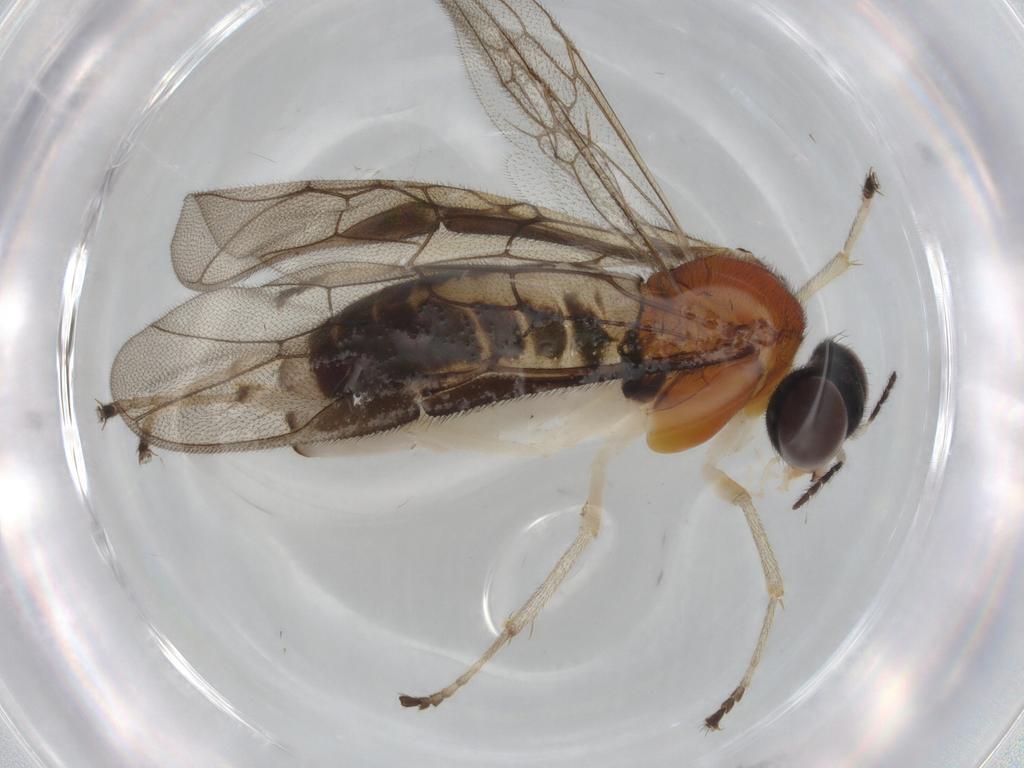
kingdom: Animalia
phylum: Arthropoda
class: Insecta
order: Hymenoptera
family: Pergidae
